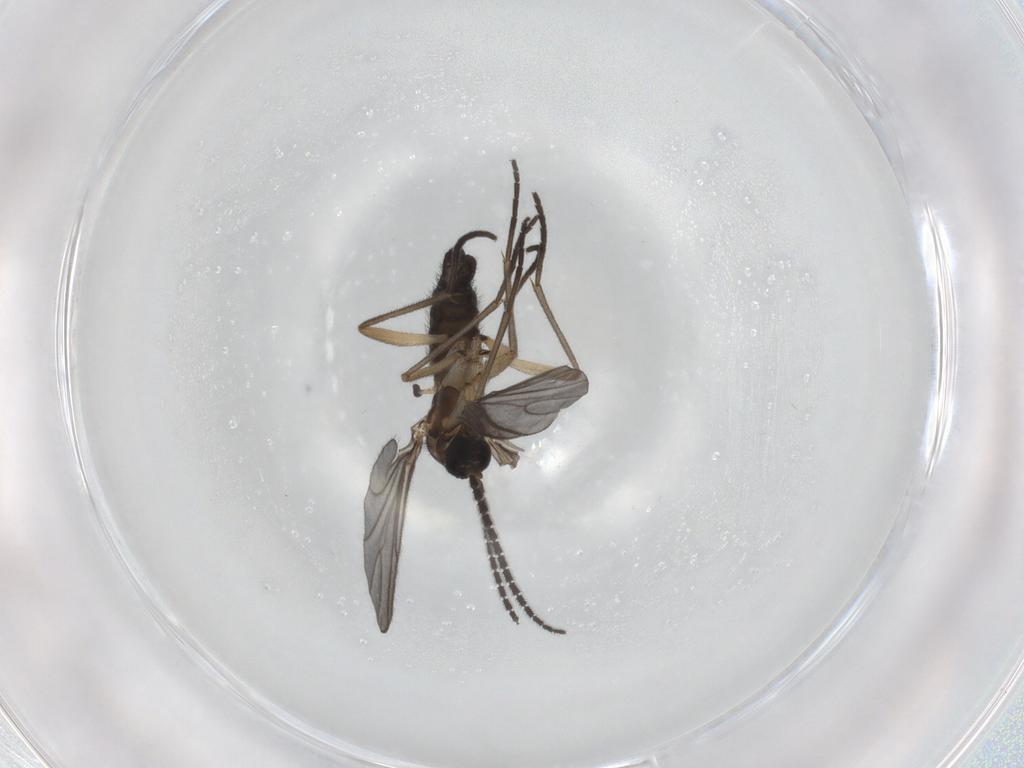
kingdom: Animalia
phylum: Arthropoda
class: Insecta
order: Diptera
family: Sciaridae
